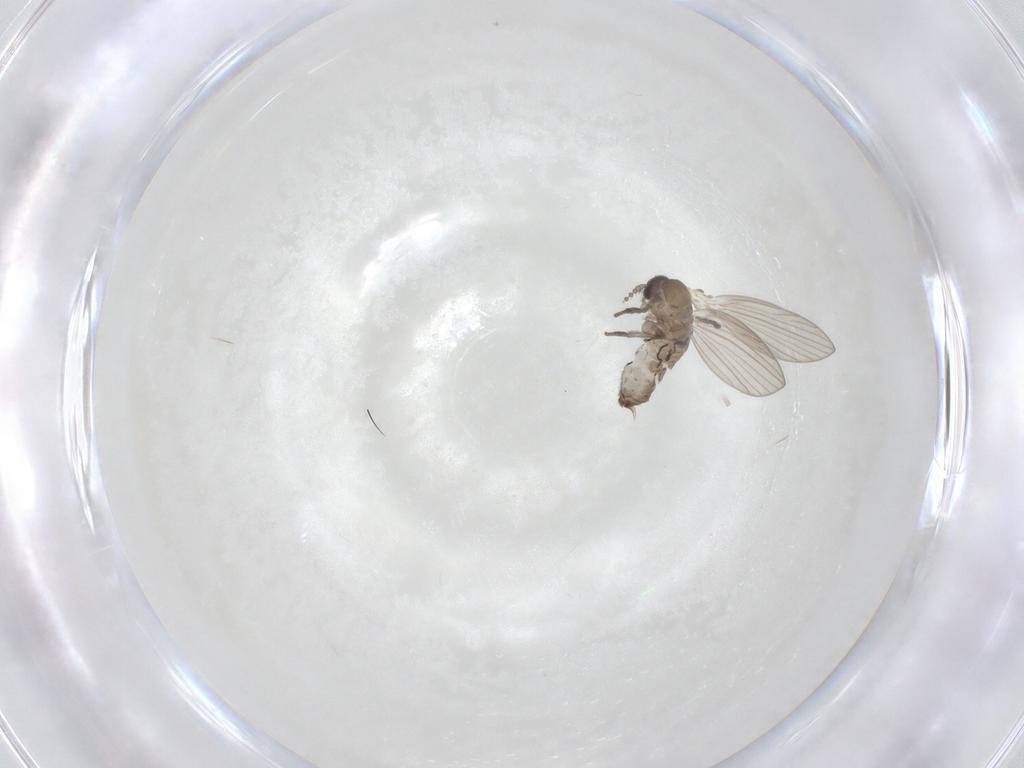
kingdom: Animalia
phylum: Arthropoda
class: Insecta
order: Diptera
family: Psychodidae
